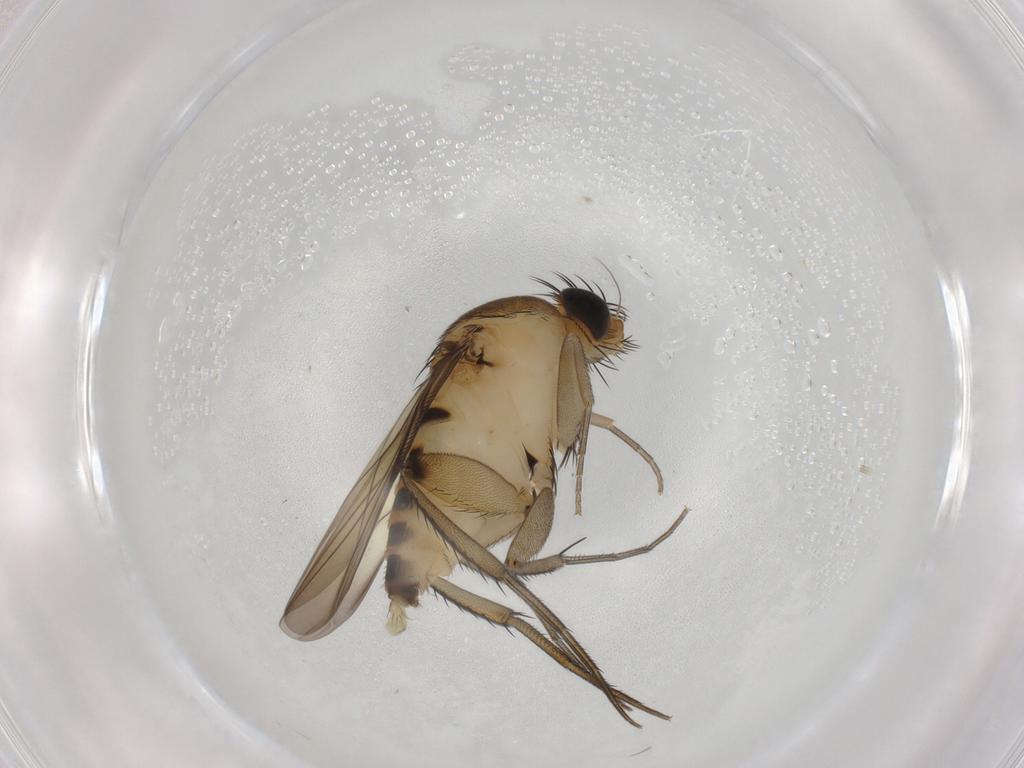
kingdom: Animalia
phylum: Arthropoda
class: Insecta
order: Diptera
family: Phoridae
